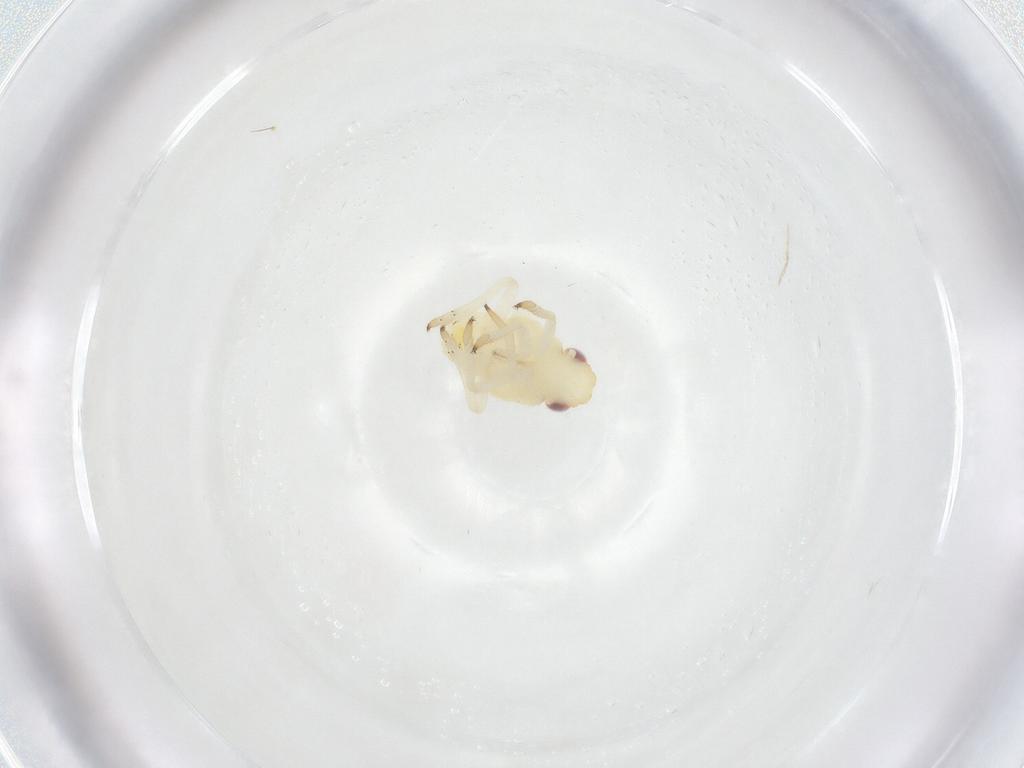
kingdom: Animalia
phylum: Arthropoda
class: Insecta
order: Hemiptera
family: Caliscelidae
